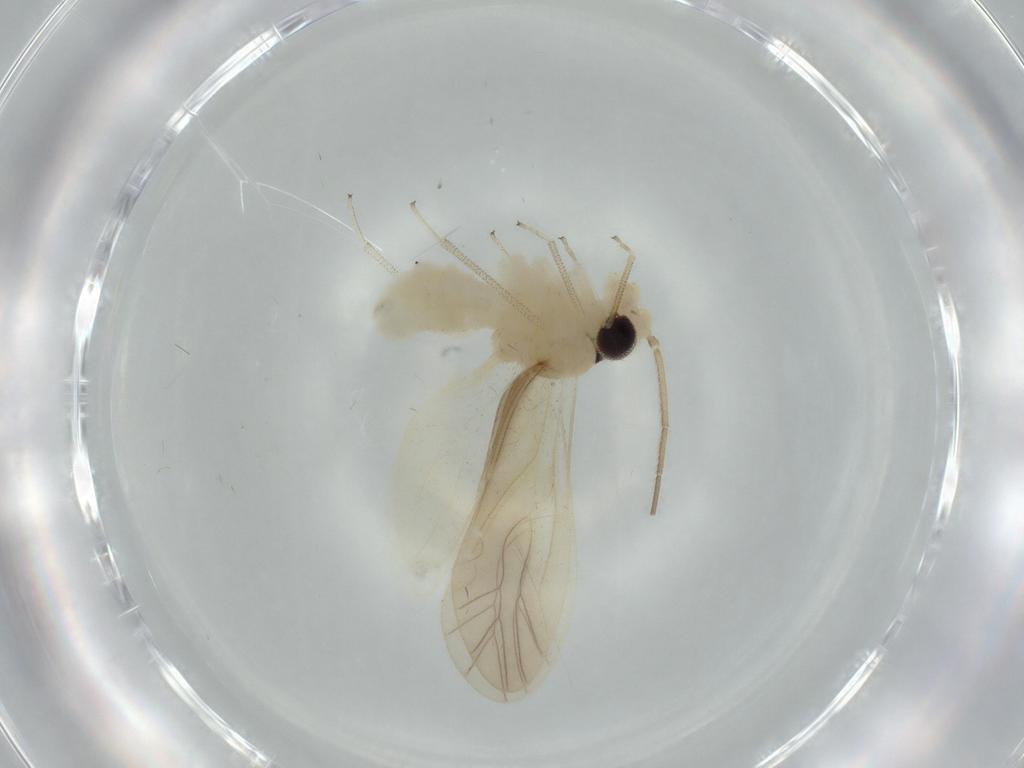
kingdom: Animalia
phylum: Arthropoda
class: Insecta
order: Psocodea
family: Caeciliusidae
